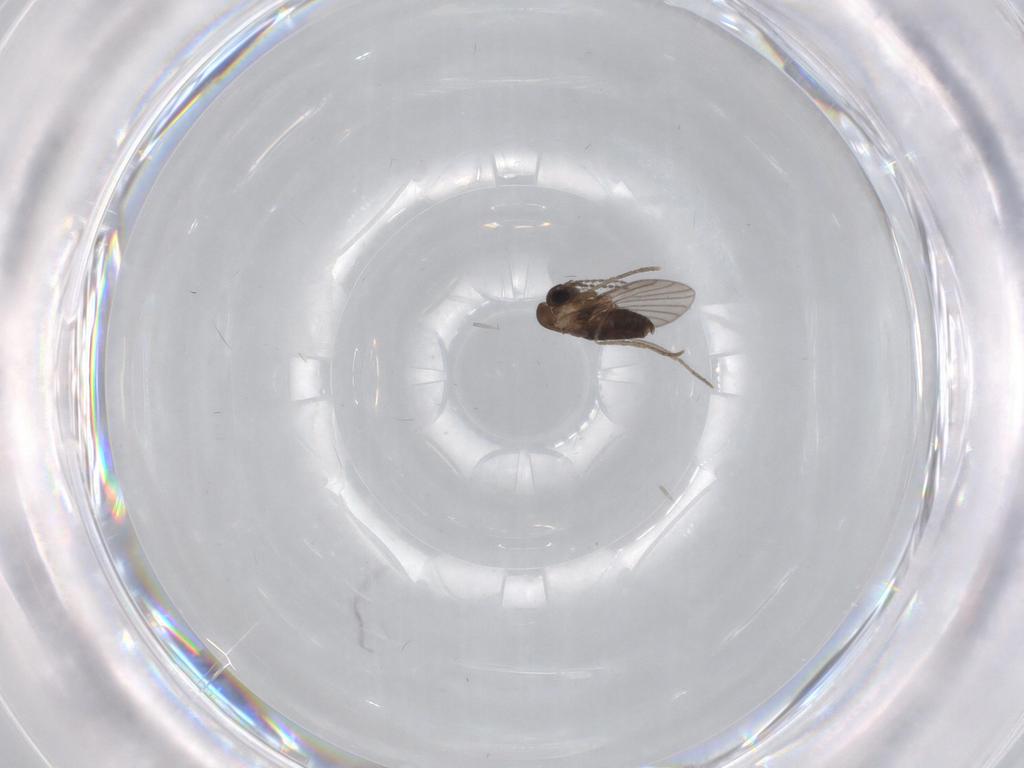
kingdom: Animalia
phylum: Arthropoda
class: Insecta
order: Diptera
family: Psychodidae
